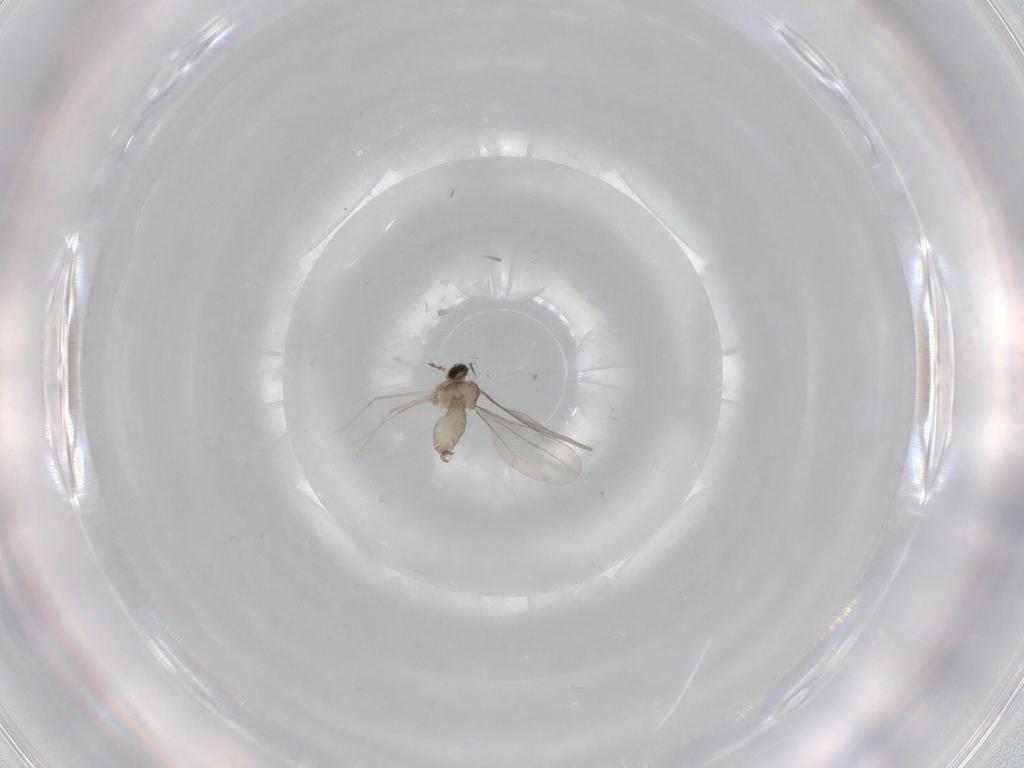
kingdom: Animalia
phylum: Arthropoda
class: Insecta
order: Diptera
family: Cecidomyiidae
